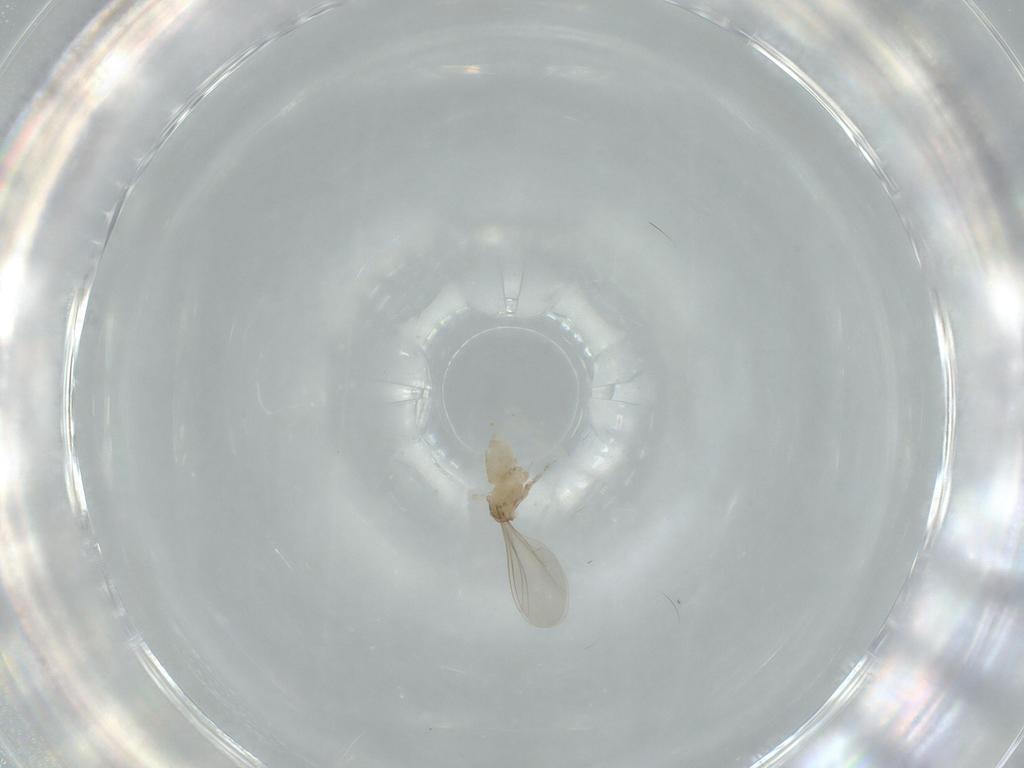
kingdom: Animalia
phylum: Arthropoda
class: Insecta
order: Diptera
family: Cecidomyiidae
